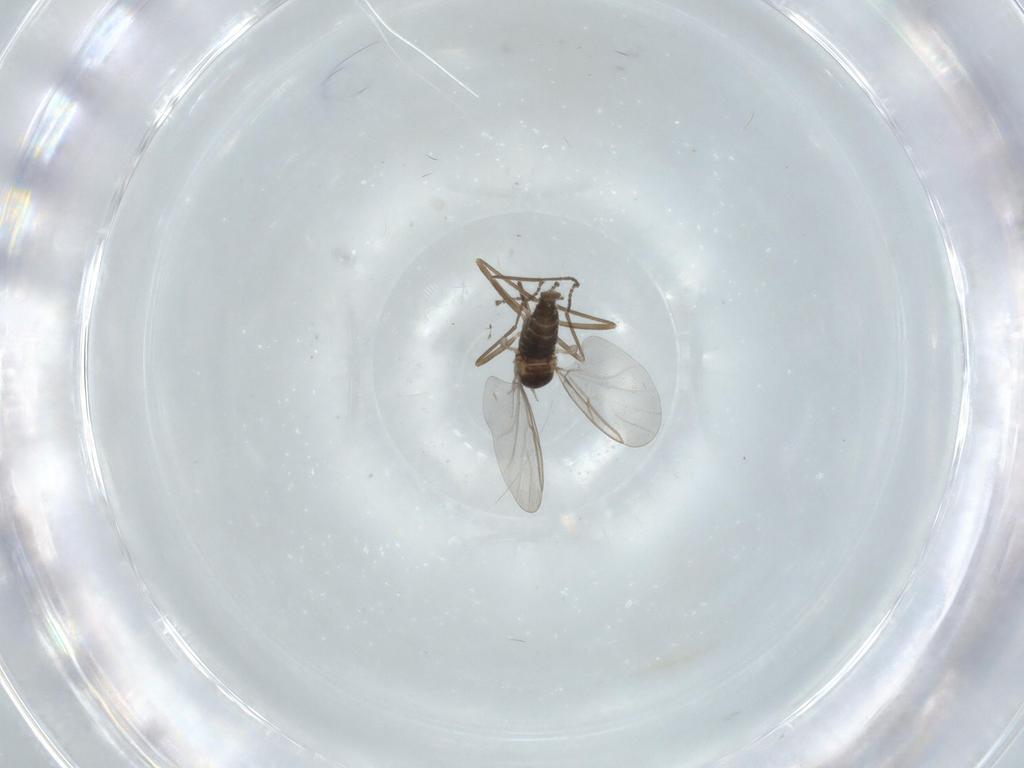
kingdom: Animalia
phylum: Arthropoda
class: Insecta
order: Diptera
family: Cecidomyiidae
